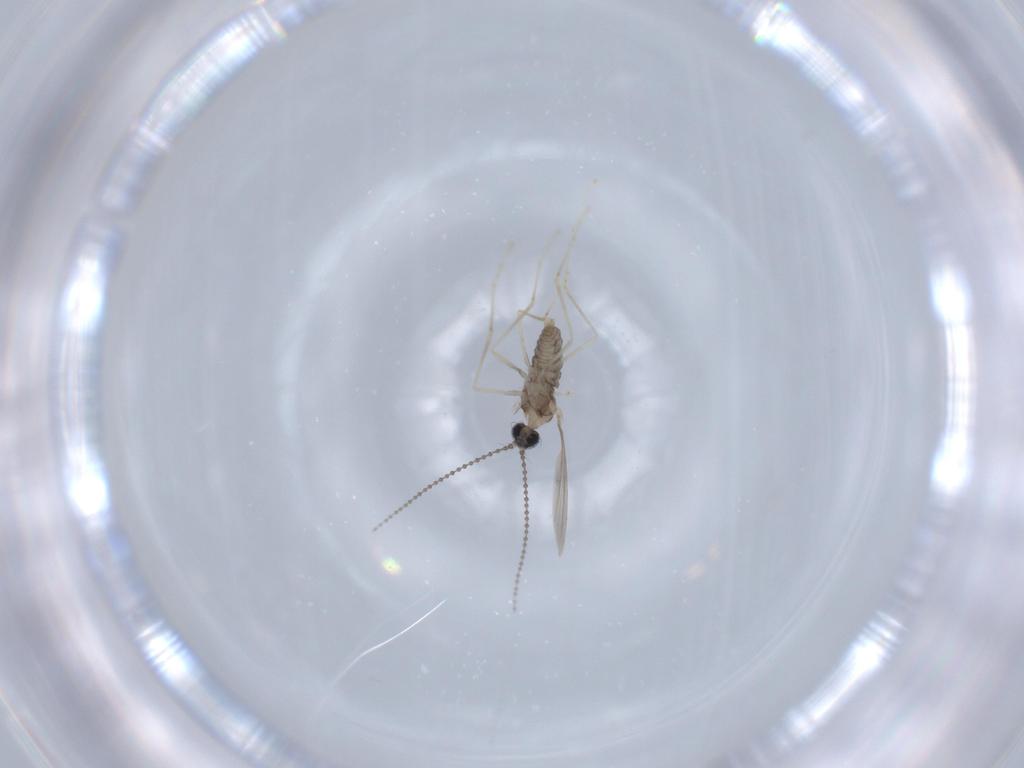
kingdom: Animalia
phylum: Arthropoda
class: Insecta
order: Diptera
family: Cecidomyiidae
